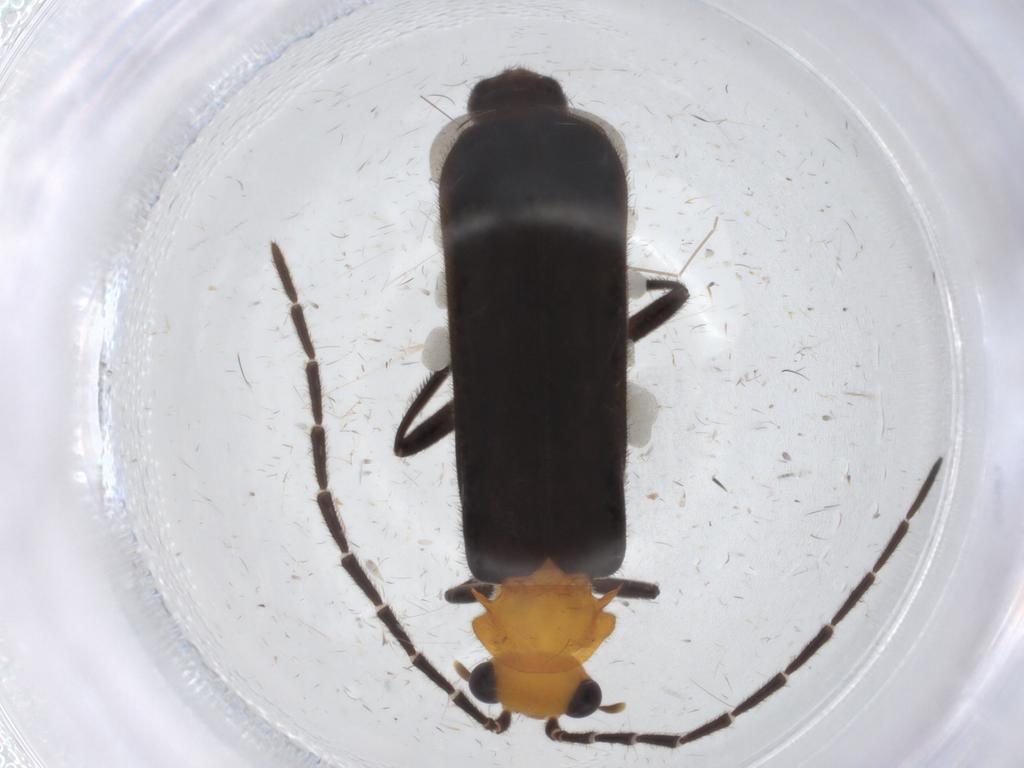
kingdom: Animalia
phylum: Arthropoda
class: Insecta
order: Coleoptera
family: Cantharidae
